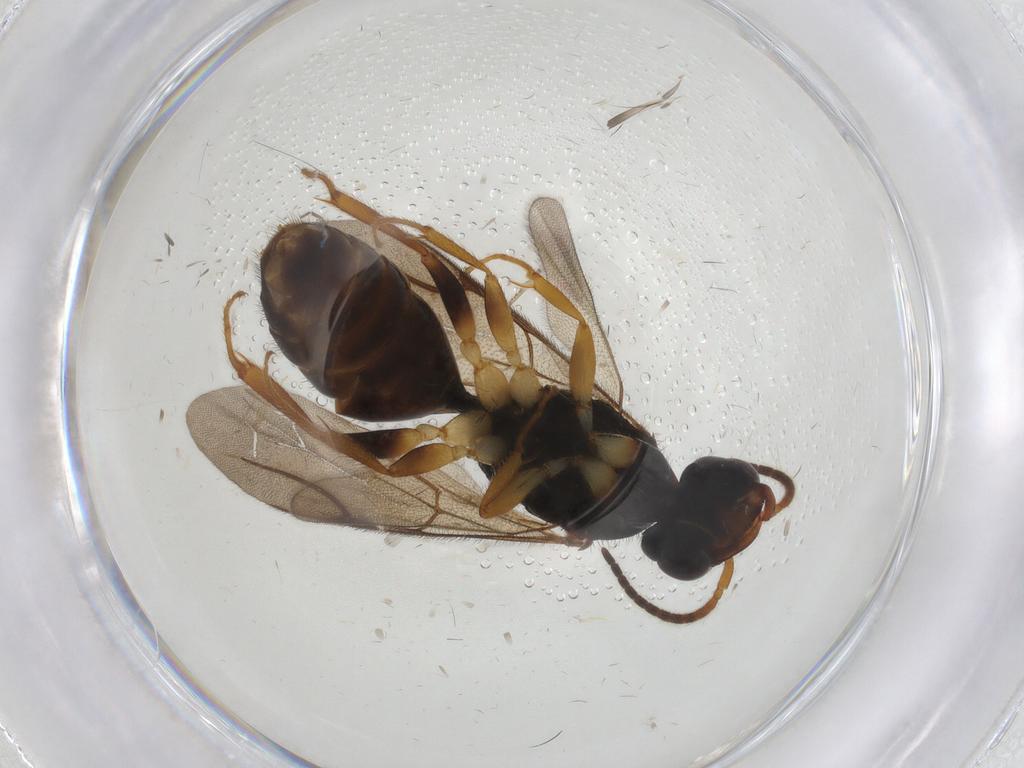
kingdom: Animalia
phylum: Arthropoda
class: Insecta
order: Hymenoptera
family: Bethylidae
